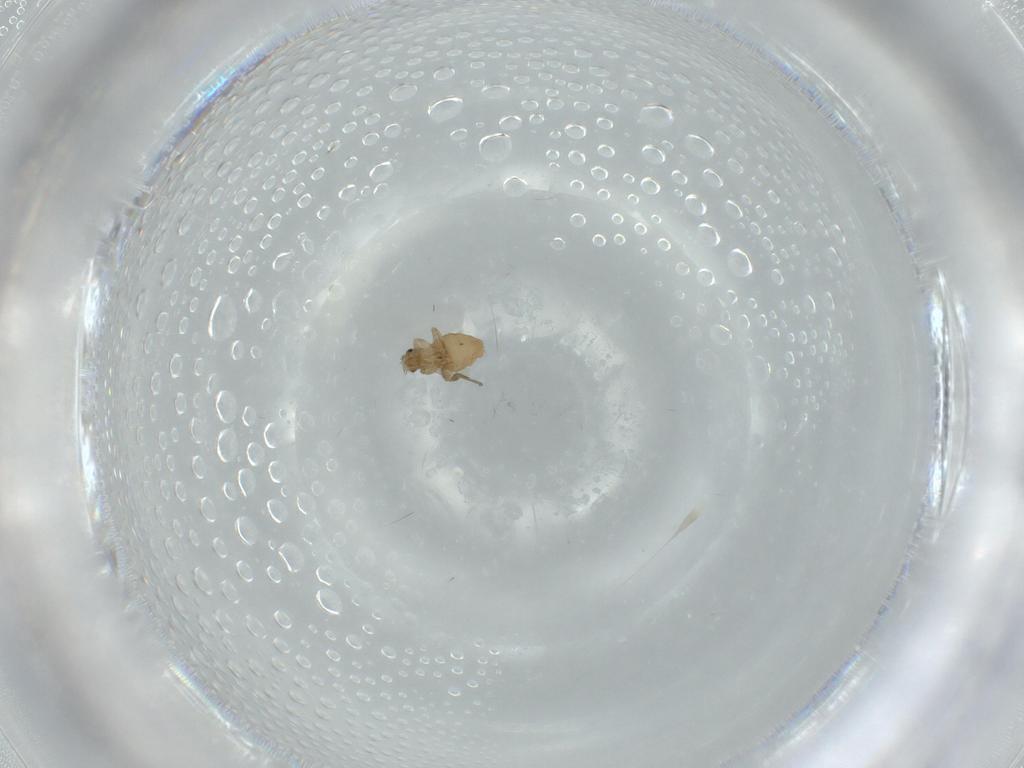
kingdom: Animalia
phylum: Arthropoda
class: Insecta
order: Diptera
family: Phoridae
